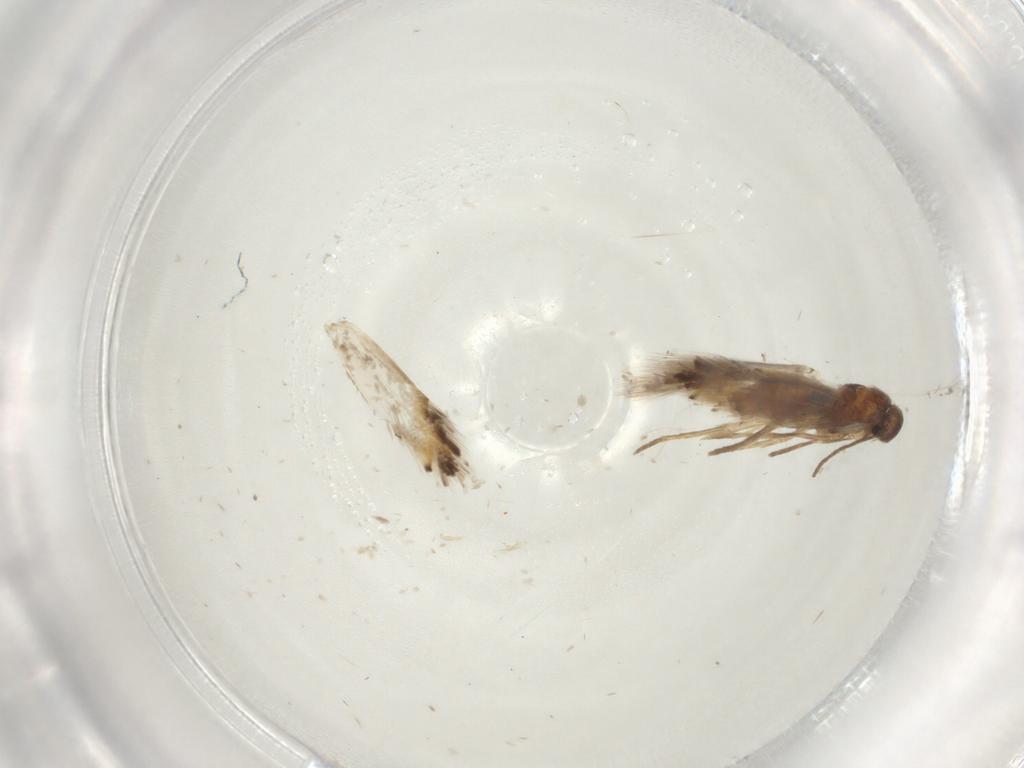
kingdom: Animalia
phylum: Arthropoda
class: Insecta
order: Lepidoptera
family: Heliozelidae
